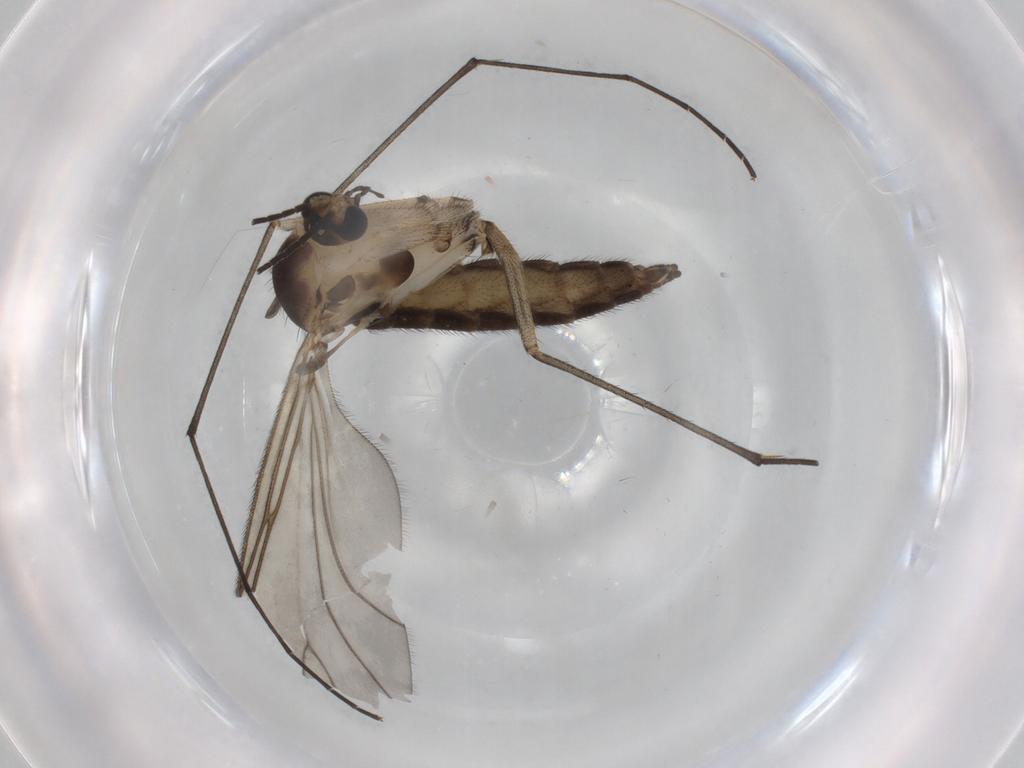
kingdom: Animalia
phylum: Arthropoda
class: Insecta
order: Diptera
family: Sciaridae
